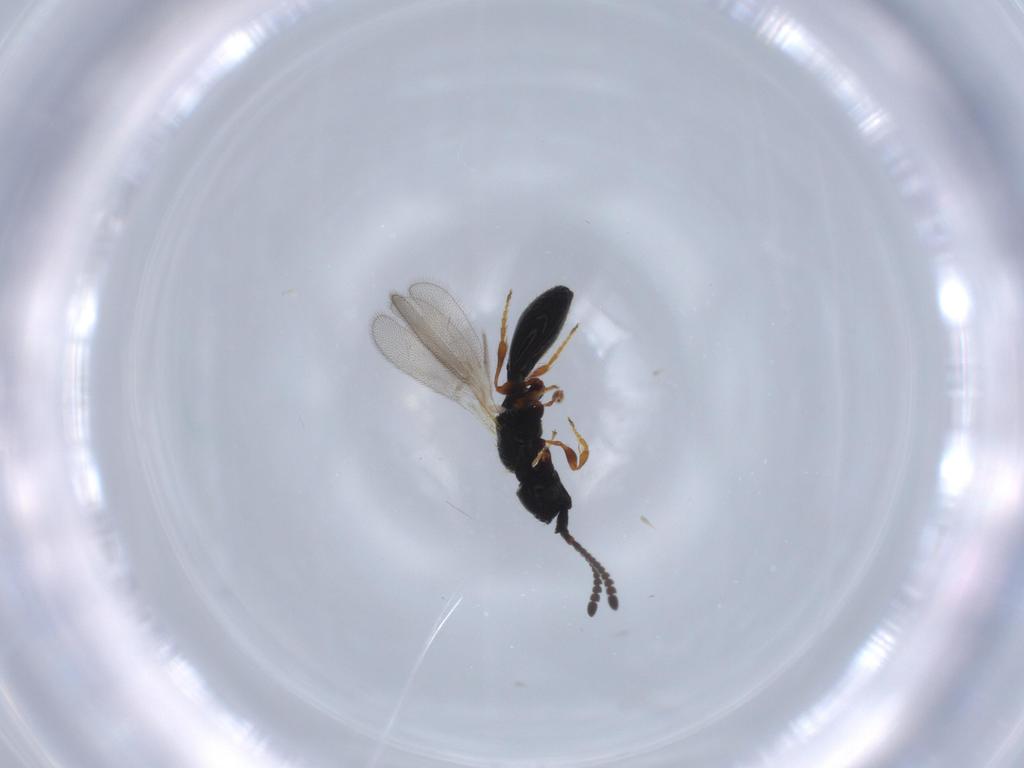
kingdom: Animalia
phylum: Arthropoda
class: Insecta
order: Hymenoptera
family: Diapriidae
